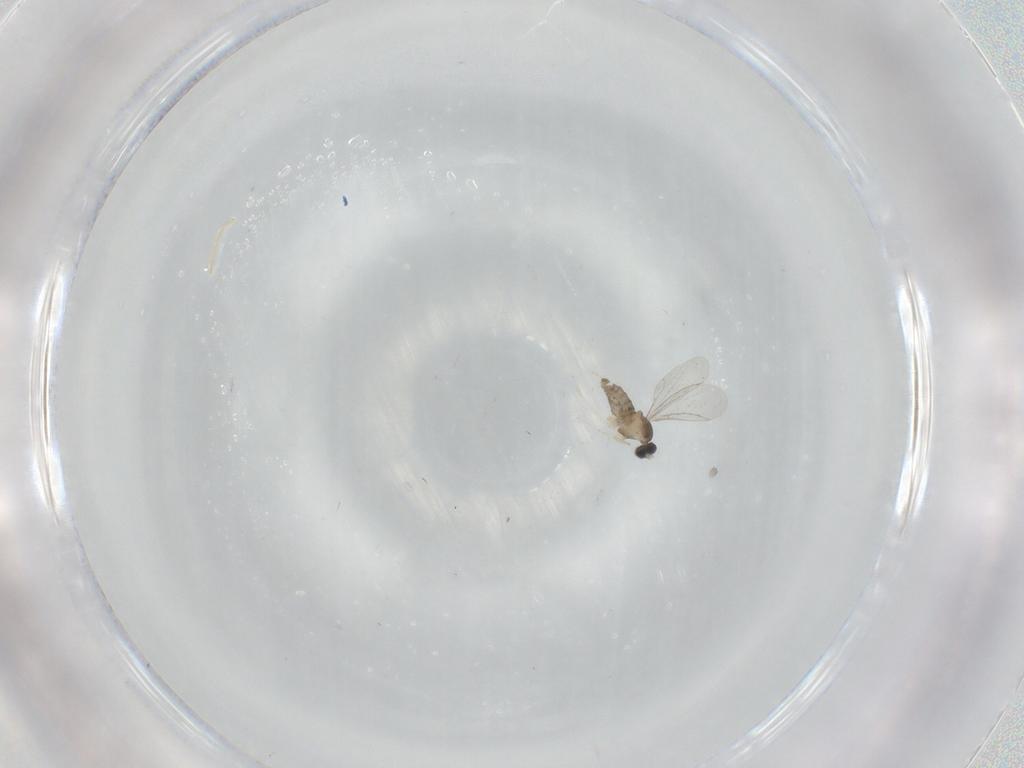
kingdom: Animalia
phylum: Arthropoda
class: Insecta
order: Diptera
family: Cecidomyiidae
